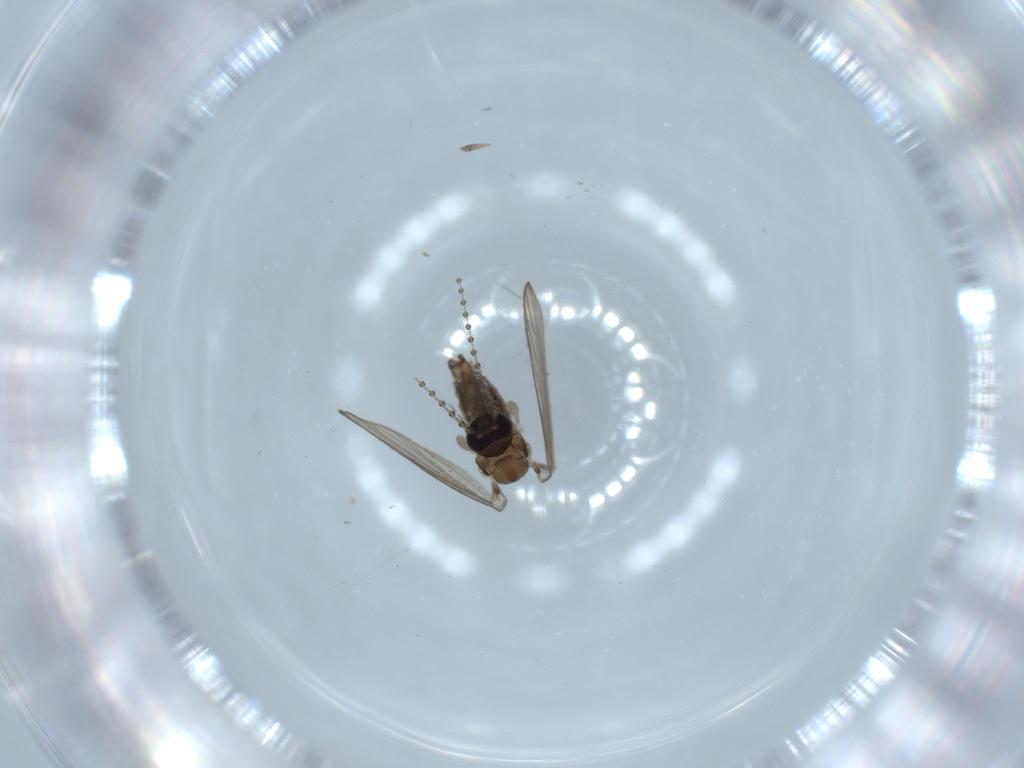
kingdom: Animalia
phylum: Arthropoda
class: Insecta
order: Diptera
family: Psychodidae
